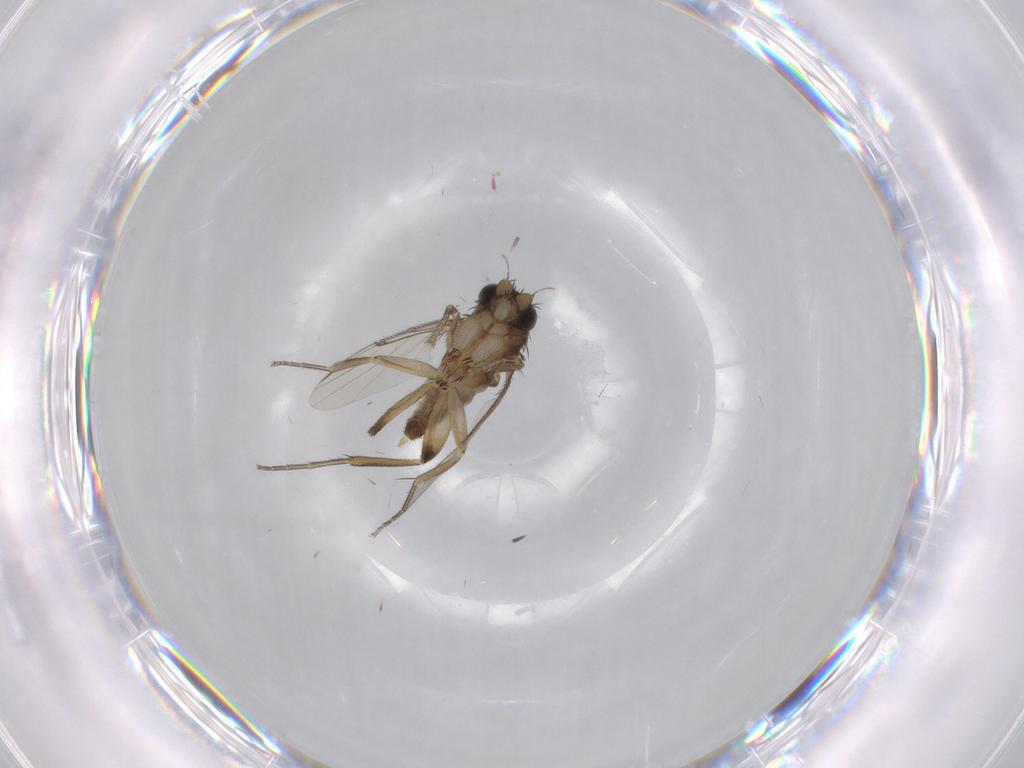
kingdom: Animalia
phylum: Arthropoda
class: Insecta
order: Diptera
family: Phoridae
